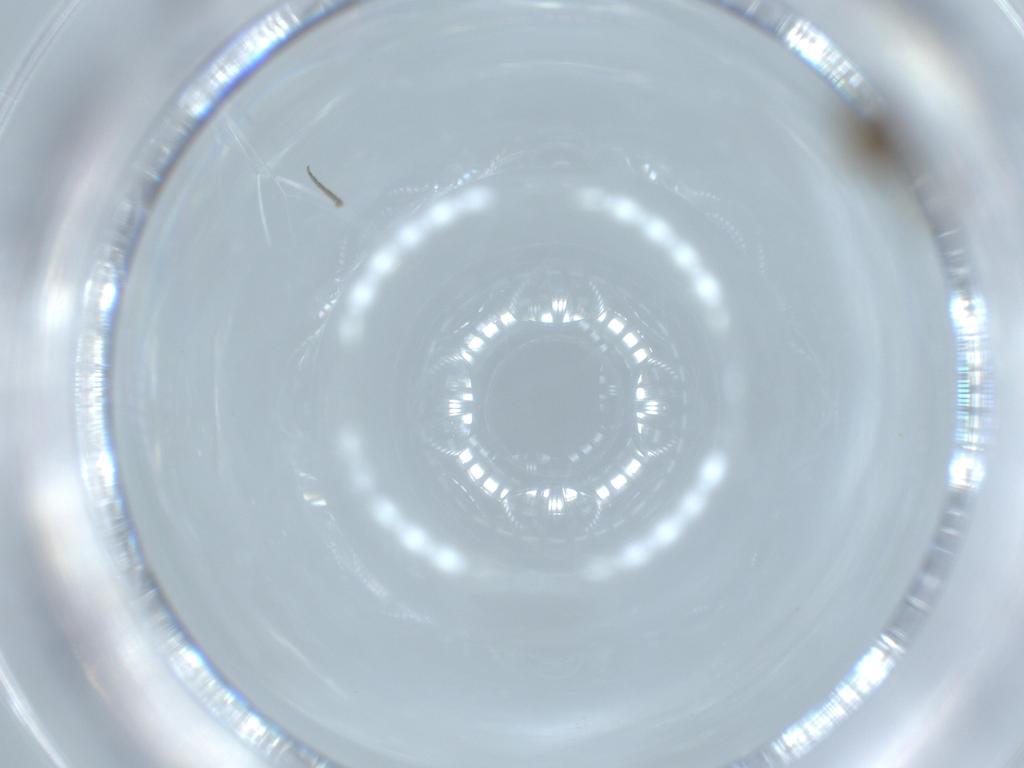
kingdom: Animalia
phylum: Arthropoda
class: Insecta
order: Diptera
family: Phoridae
